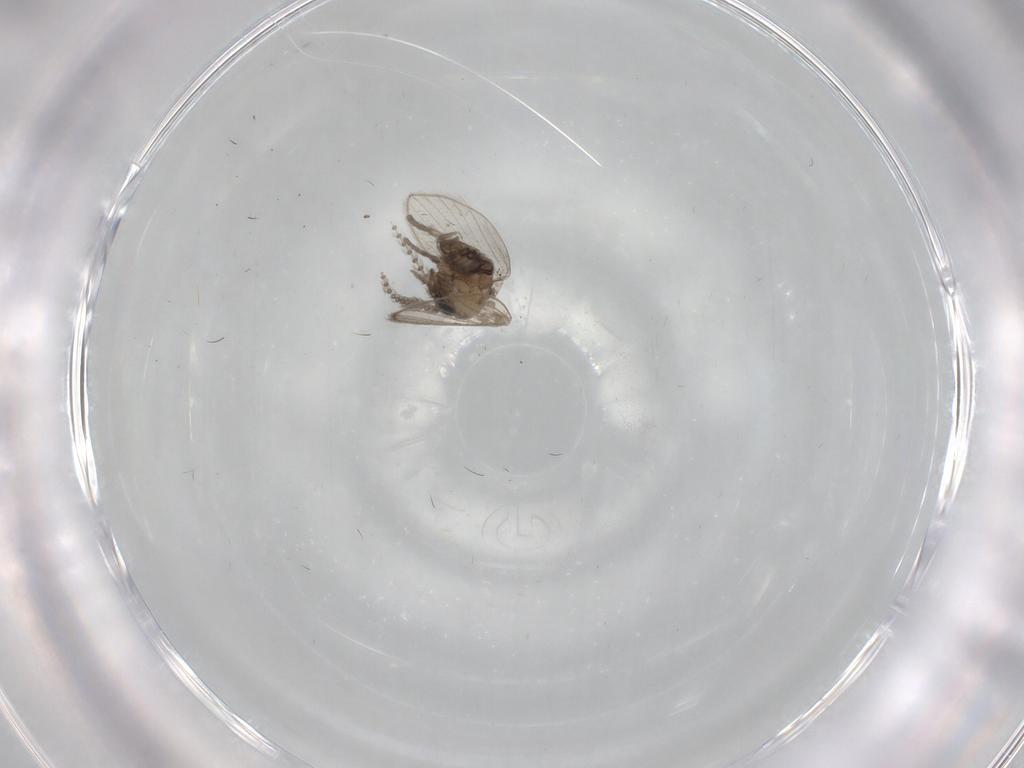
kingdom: Animalia
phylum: Arthropoda
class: Insecta
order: Diptera
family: Psychodidae
